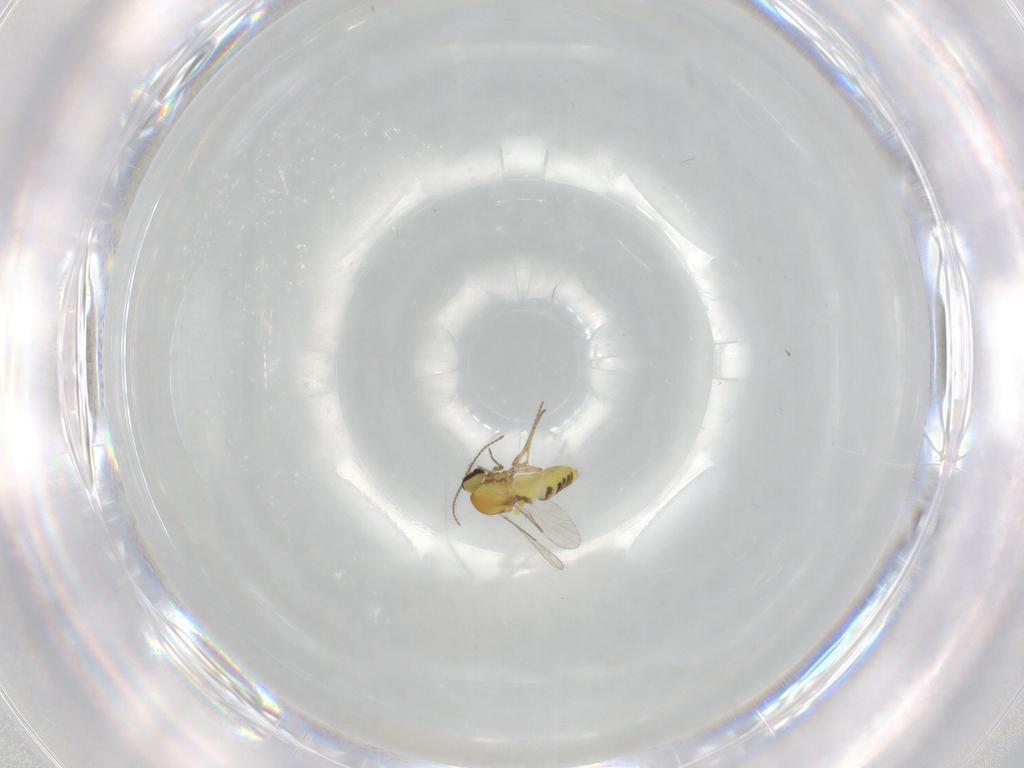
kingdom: Animalia
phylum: Arthropoda
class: Insecta
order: Diptera
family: Ceratopogonidae
